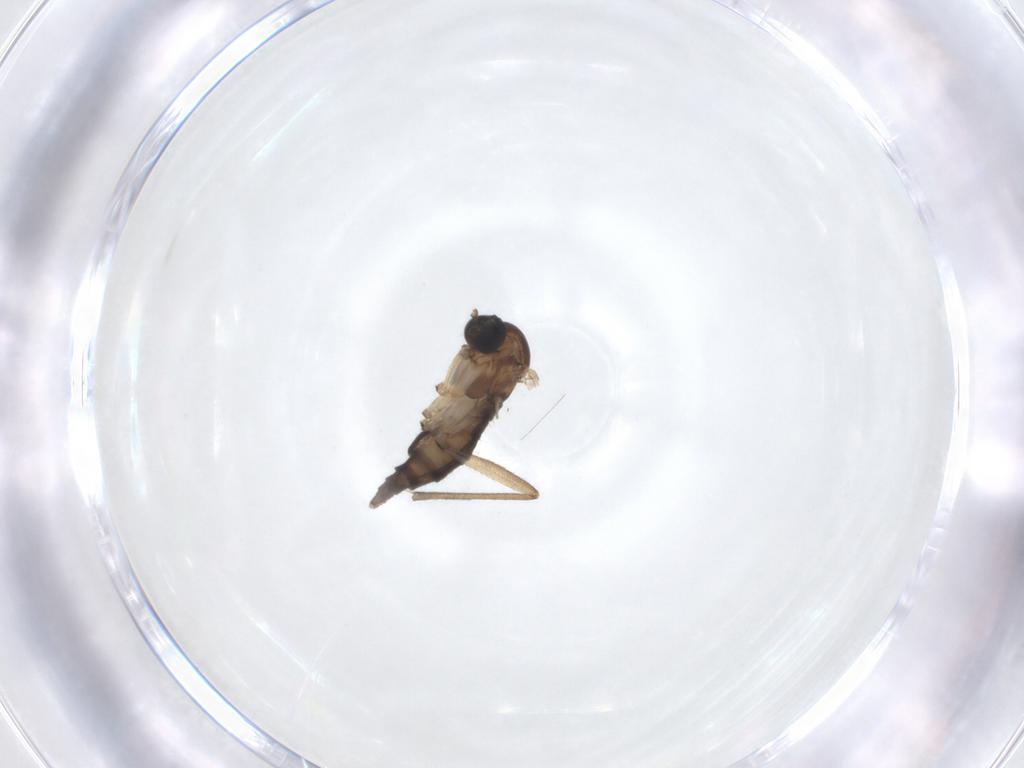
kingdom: Animalia
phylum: Arthropoda
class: Insecta
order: Diptera
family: Sciaridae
